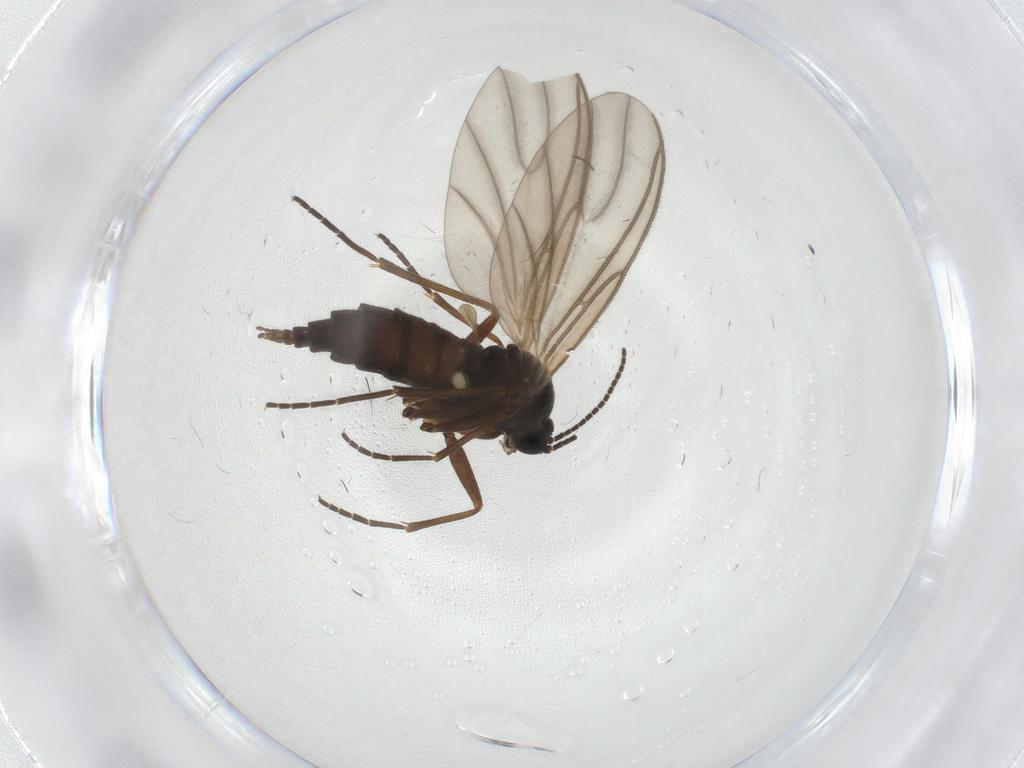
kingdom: Animalia
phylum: Arthropoda
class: Insecta
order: Diptera
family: Sciaridae
